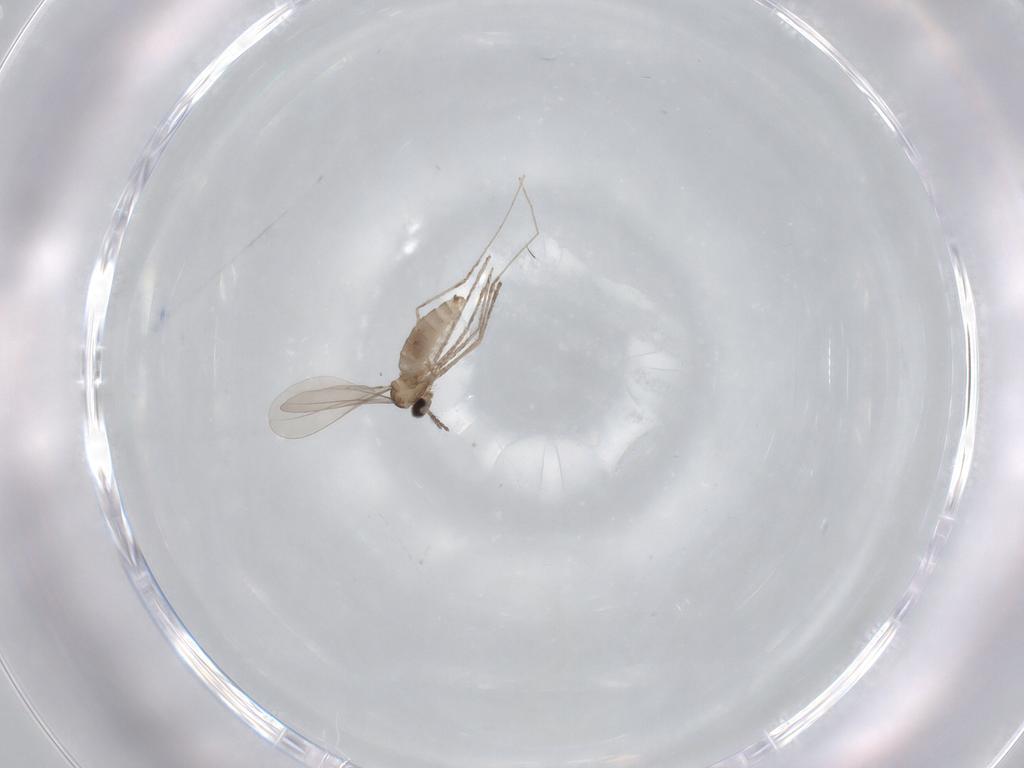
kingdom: Animalia
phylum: Arthropoda
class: Insecta
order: Diptera
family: Cecidomyiidae
